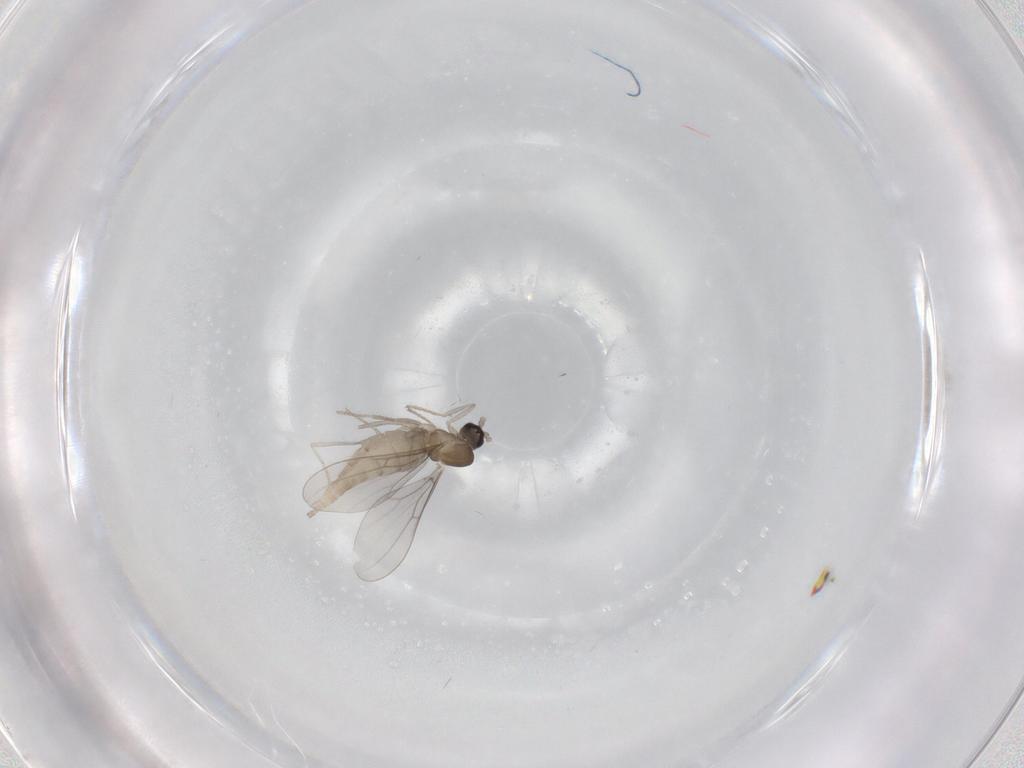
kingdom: Animalia
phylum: Arthropoda
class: Insecta
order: Diptera
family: Cecidomyiidae
